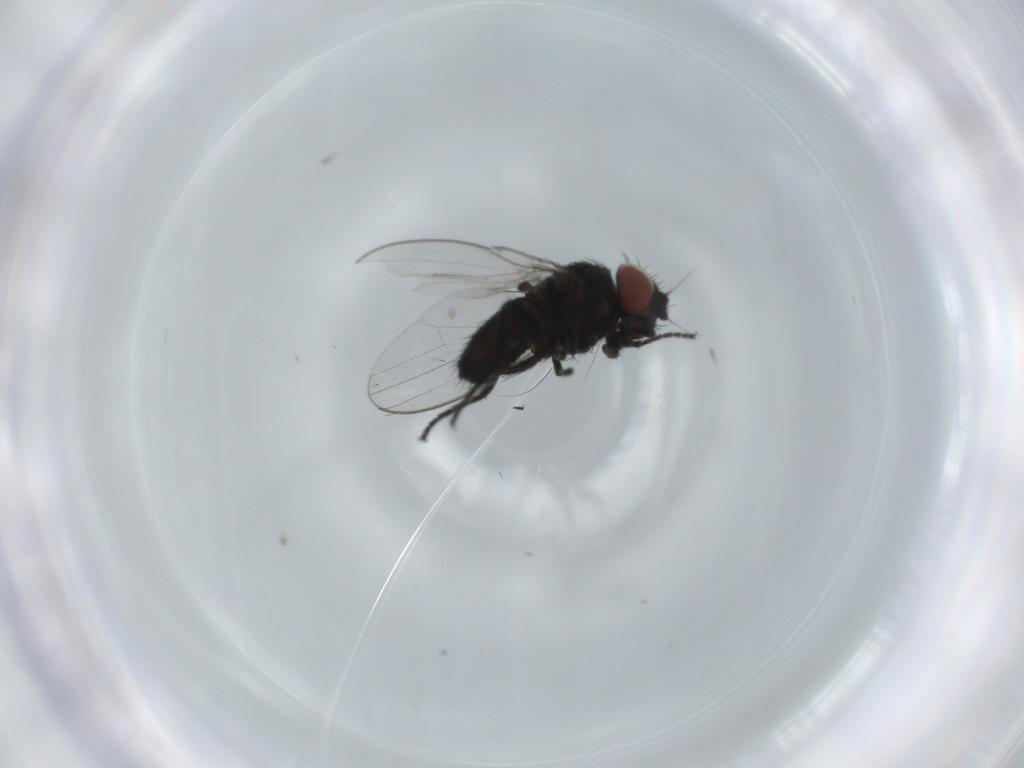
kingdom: Animalia
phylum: Arthropoda
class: Insecta
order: Diptera
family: Milichiidae
